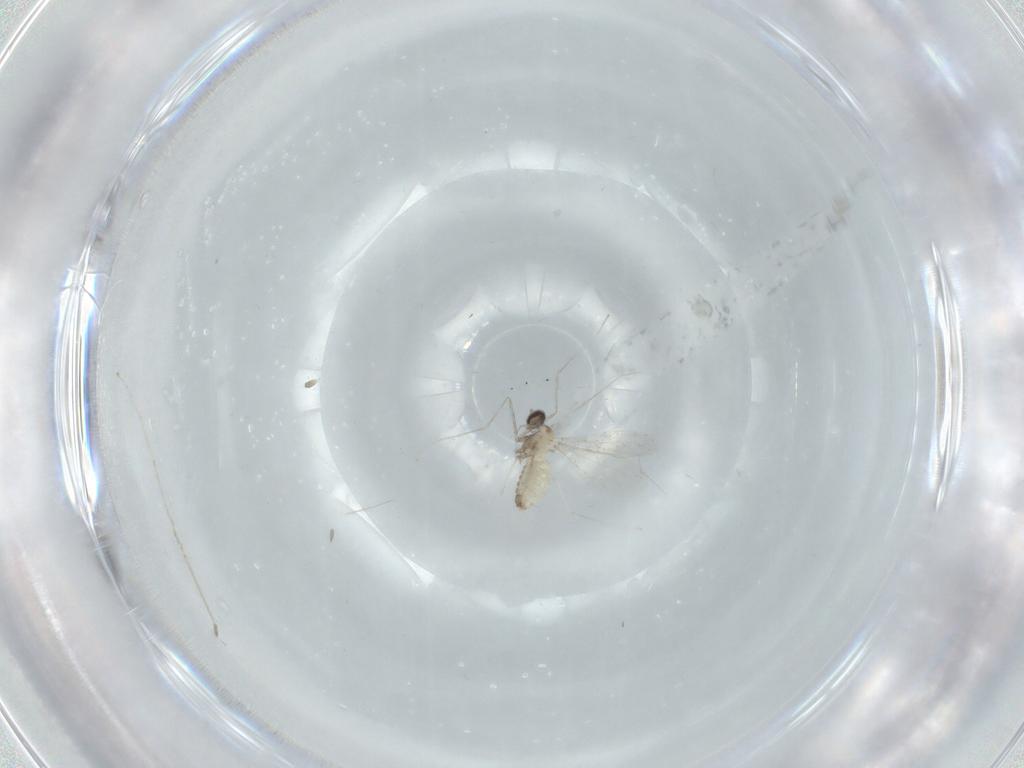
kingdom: Animalia
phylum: Arthropoda
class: Insecta
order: Diptera
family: Cecidomyiidae
